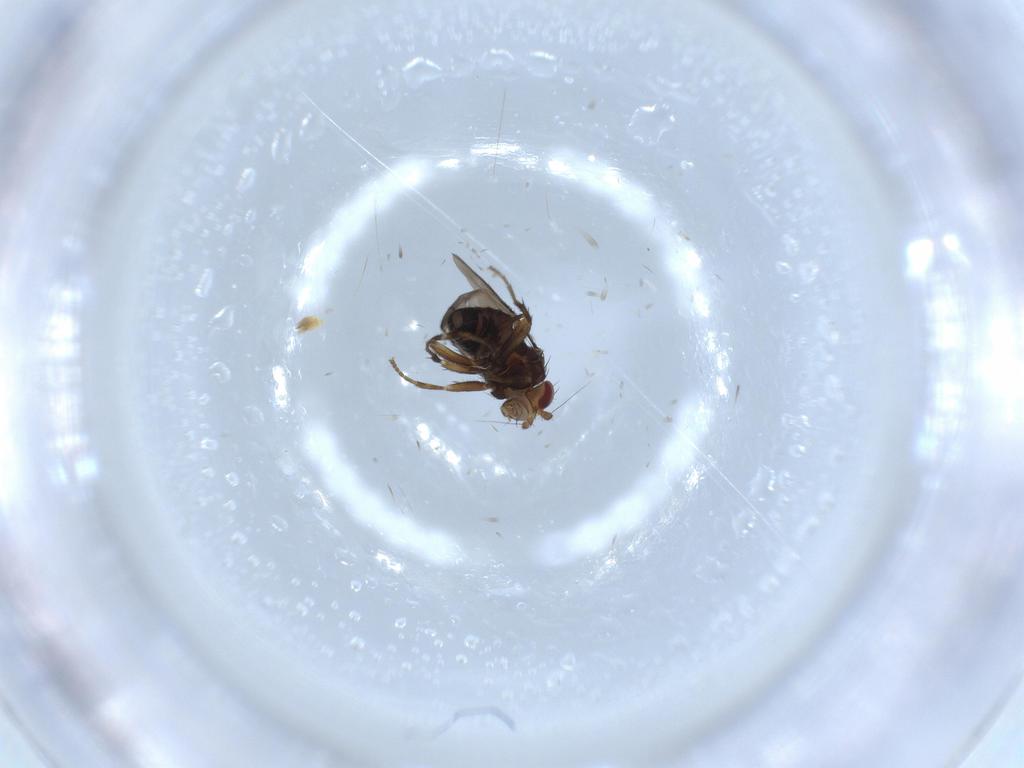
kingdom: Animalia
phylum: Arthropoda
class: Insecta
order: Diptera
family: Sphaeroceridae
